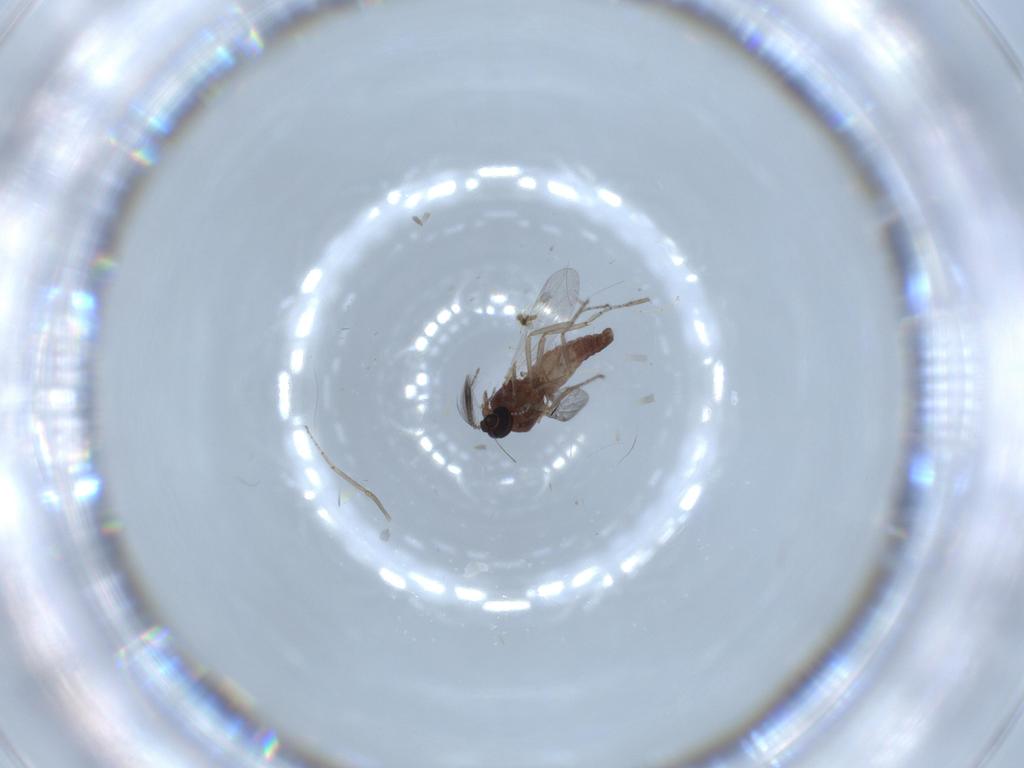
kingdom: Animalia
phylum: Arthropoda
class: Insecta
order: Diptera
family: Ceratopogonidae
